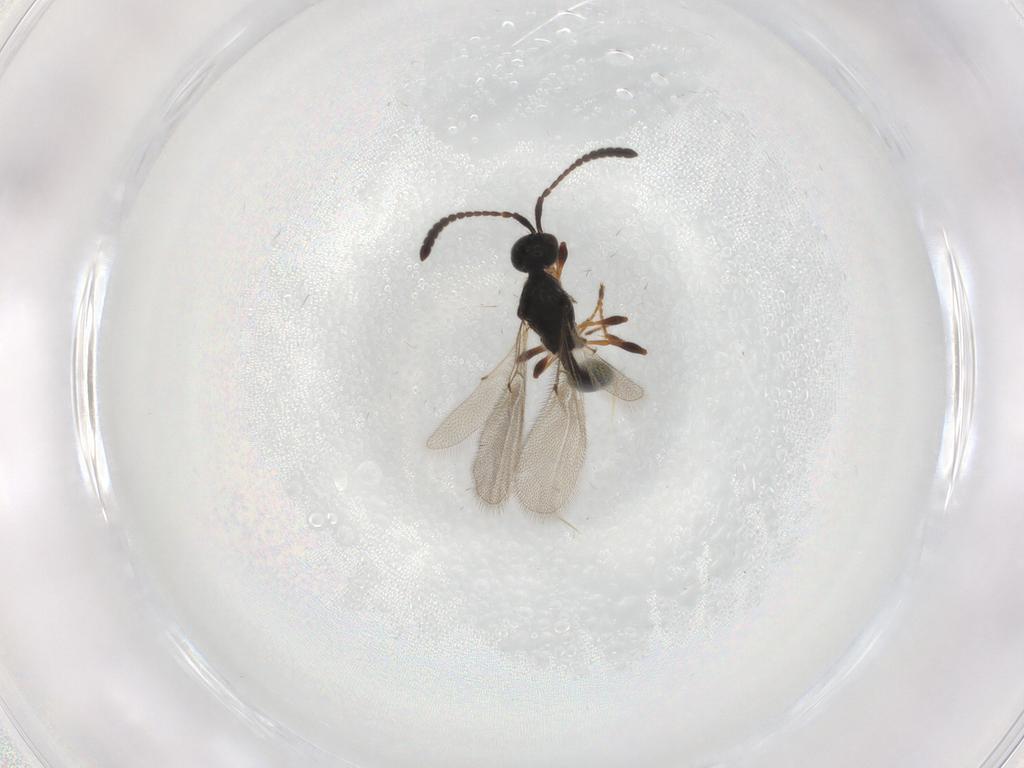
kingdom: Animalia
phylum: Arthropoda
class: Insecta
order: Hymenoptera
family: Diapriidae
